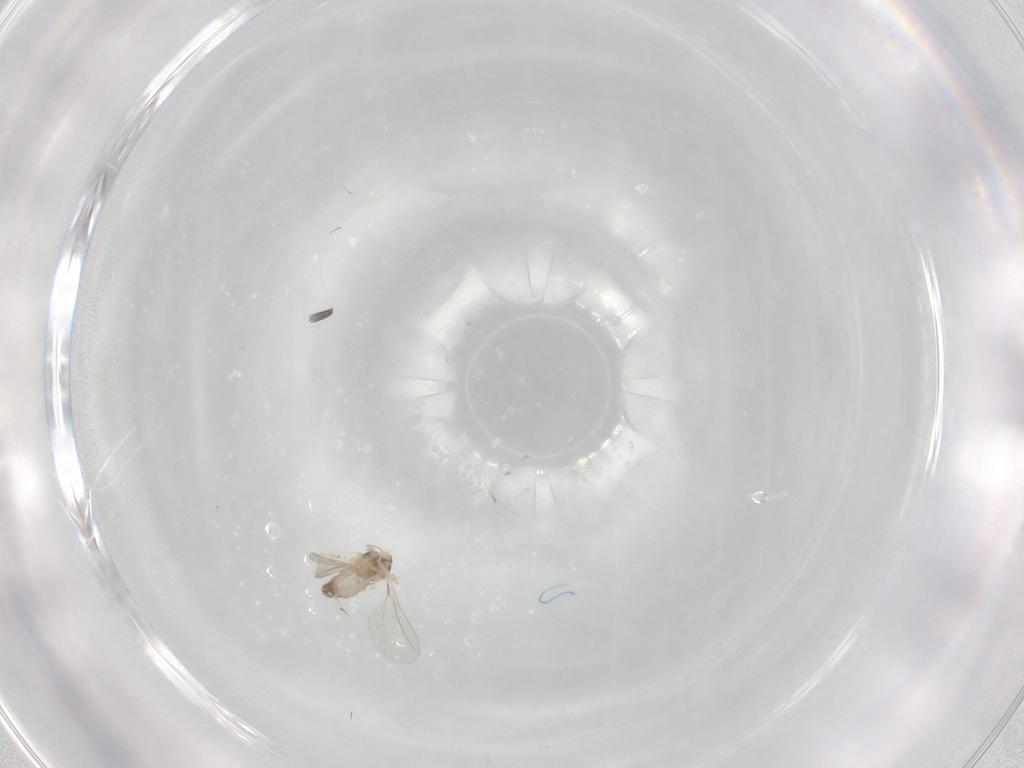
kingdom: Animalia
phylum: Arthropoda
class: Insecta
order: Diptera
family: Cecidomyiidae
